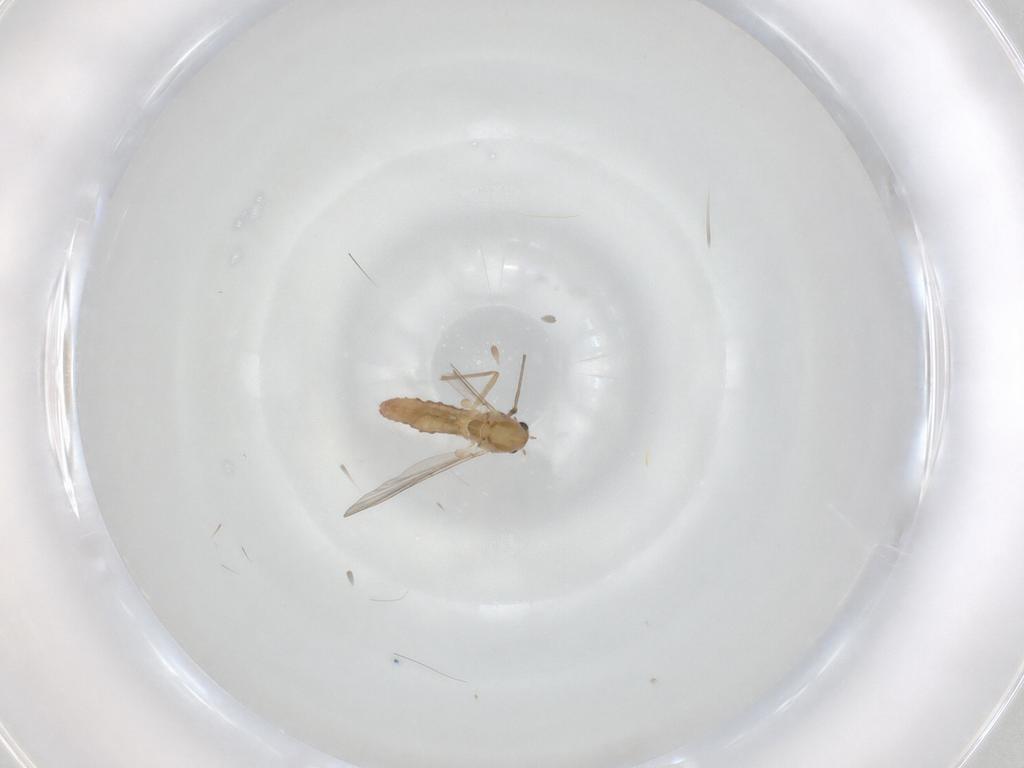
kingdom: Animalia
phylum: Arthropoda
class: Insecta
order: Diptera
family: Chironomidae
